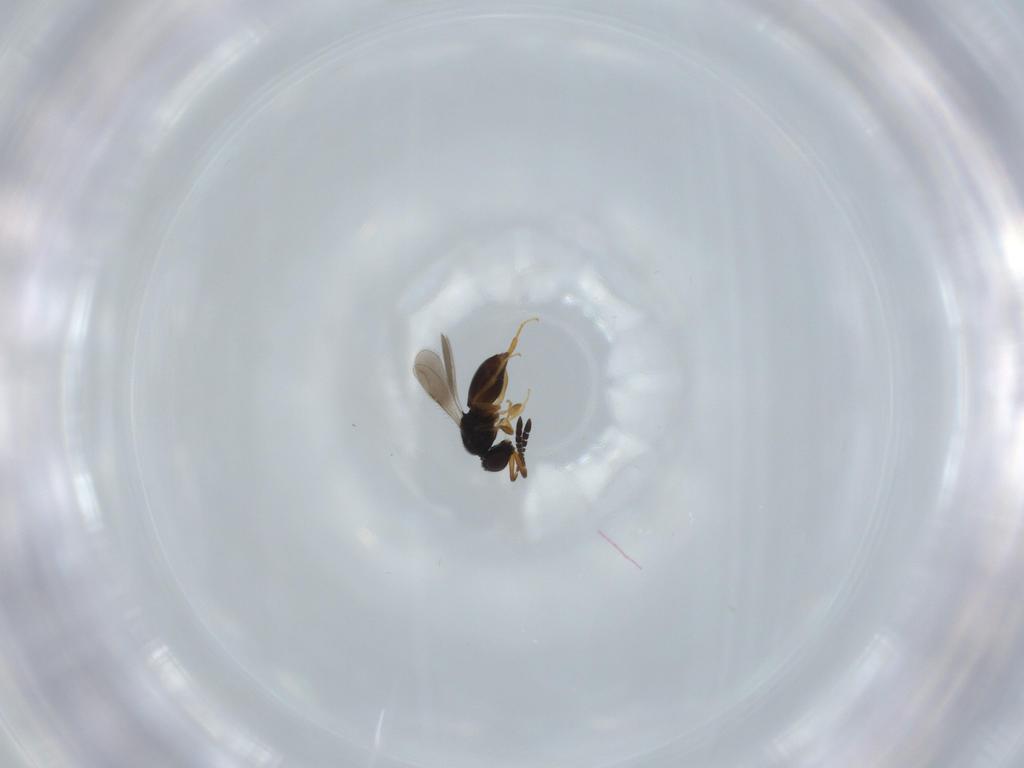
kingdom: Animalia
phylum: Arthropoda
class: Insecta
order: Hymenoptera
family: Ceraphronidae
